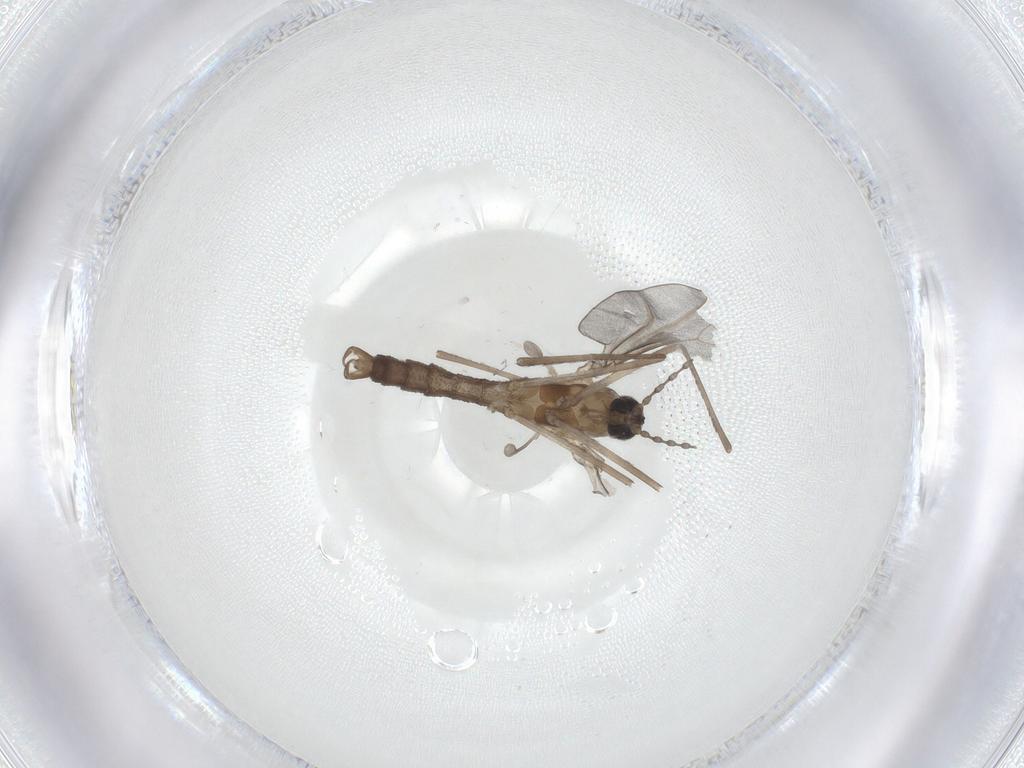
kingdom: Animalia
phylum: Arthropoda
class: Insecta
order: Diptera
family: Cecidomyiidae
